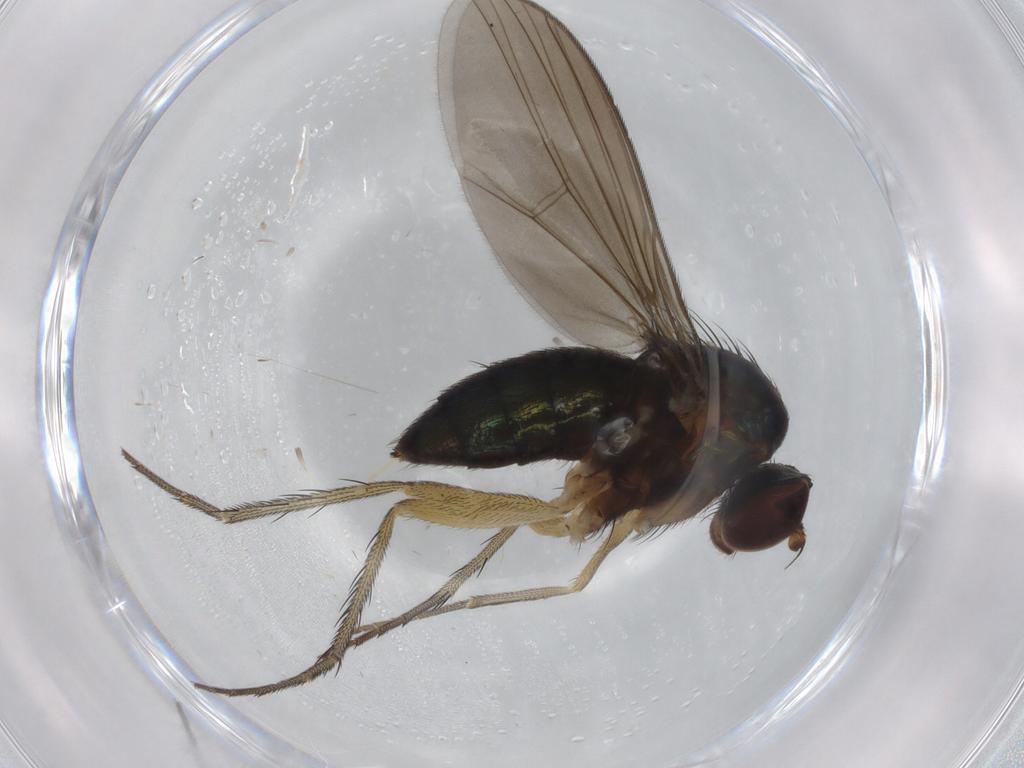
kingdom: Animalia
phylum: Arthropoda
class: Insecta
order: Diptera
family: Dolichopodidae
